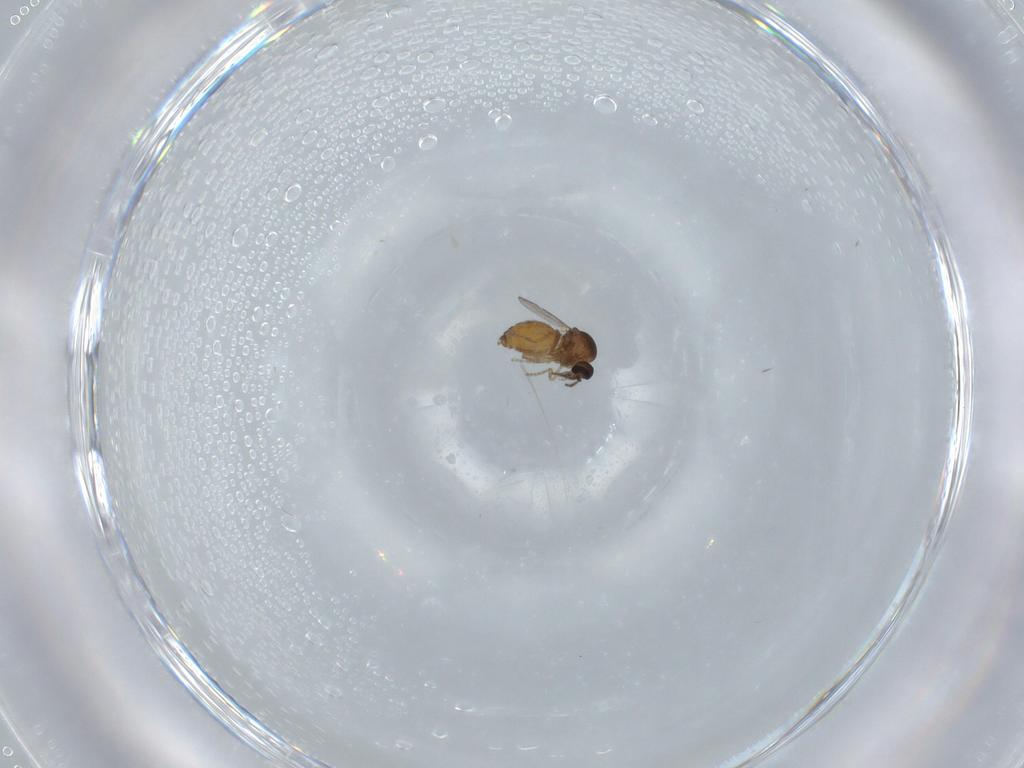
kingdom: Animalia
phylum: Arthropoda
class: Insecta
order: Diptera
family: Ceratopogonidae
